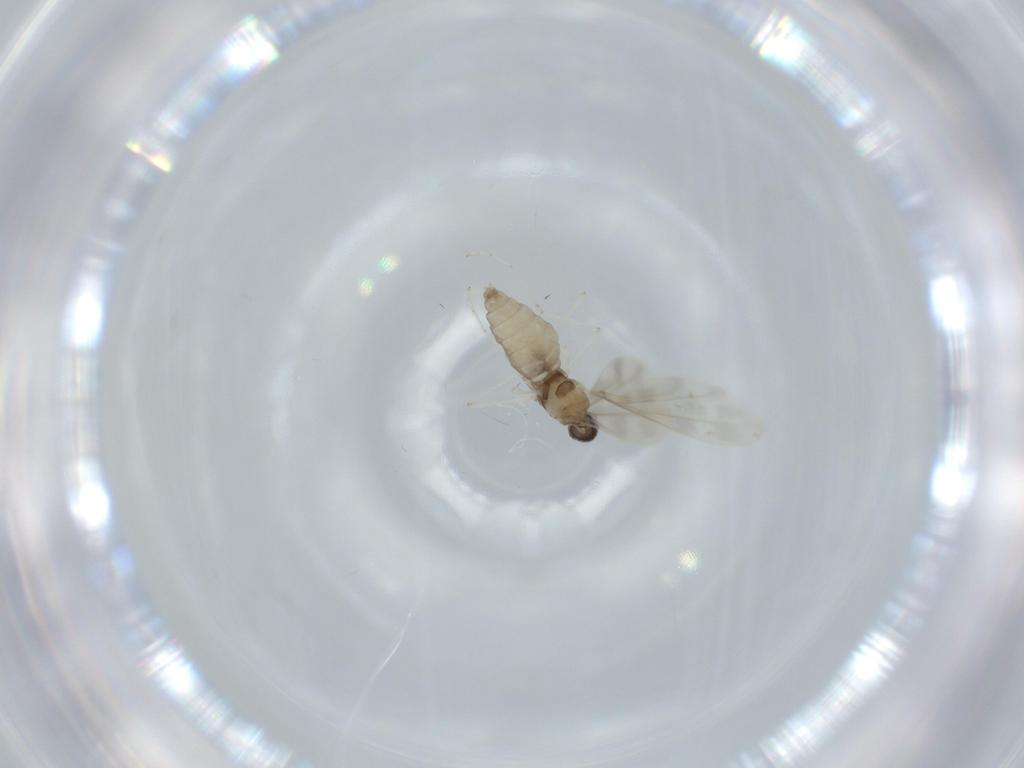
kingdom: Animalia
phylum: Arthropoda
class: Insecta
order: Diptera
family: Cecidomyiidae
